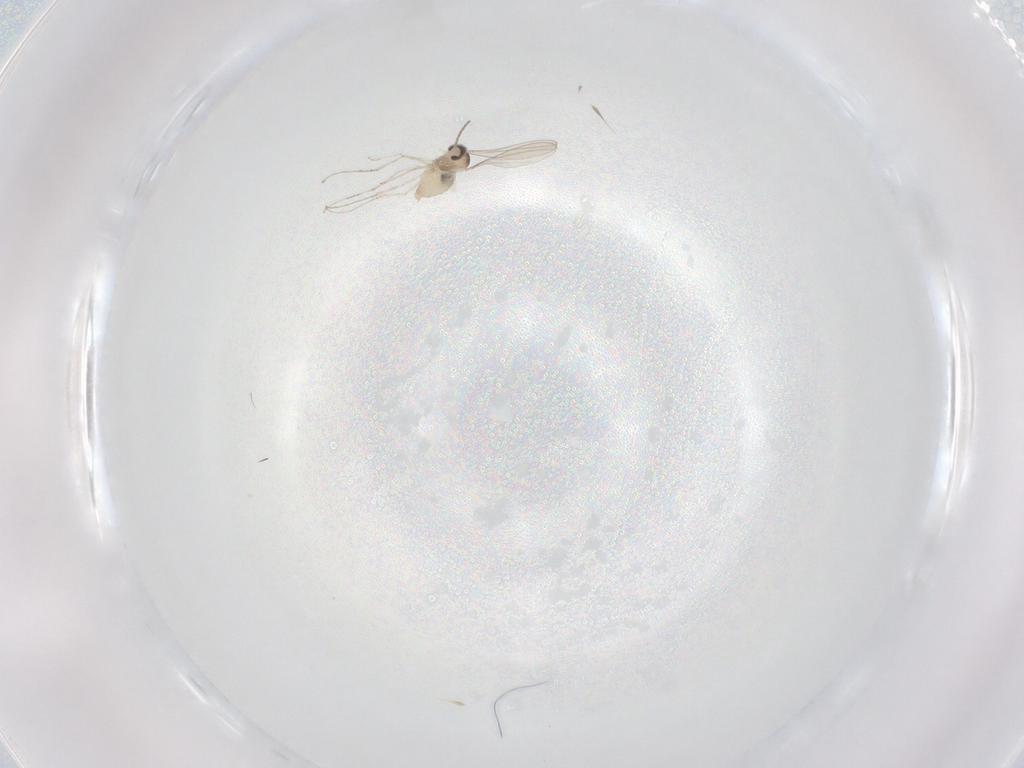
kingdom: Animalia
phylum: Arthropoda
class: Insecta
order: Diptera
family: Cecidomyiidae
